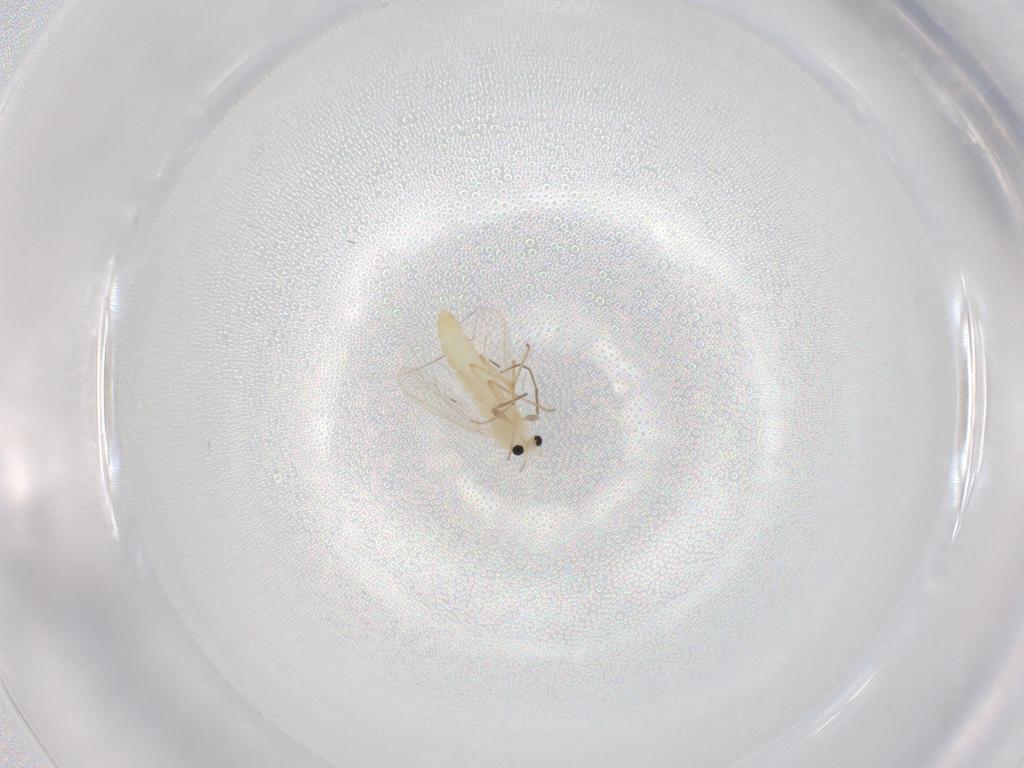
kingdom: Animalia
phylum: Arthropoda
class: Insecta
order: Diptera
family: Chironomidae
